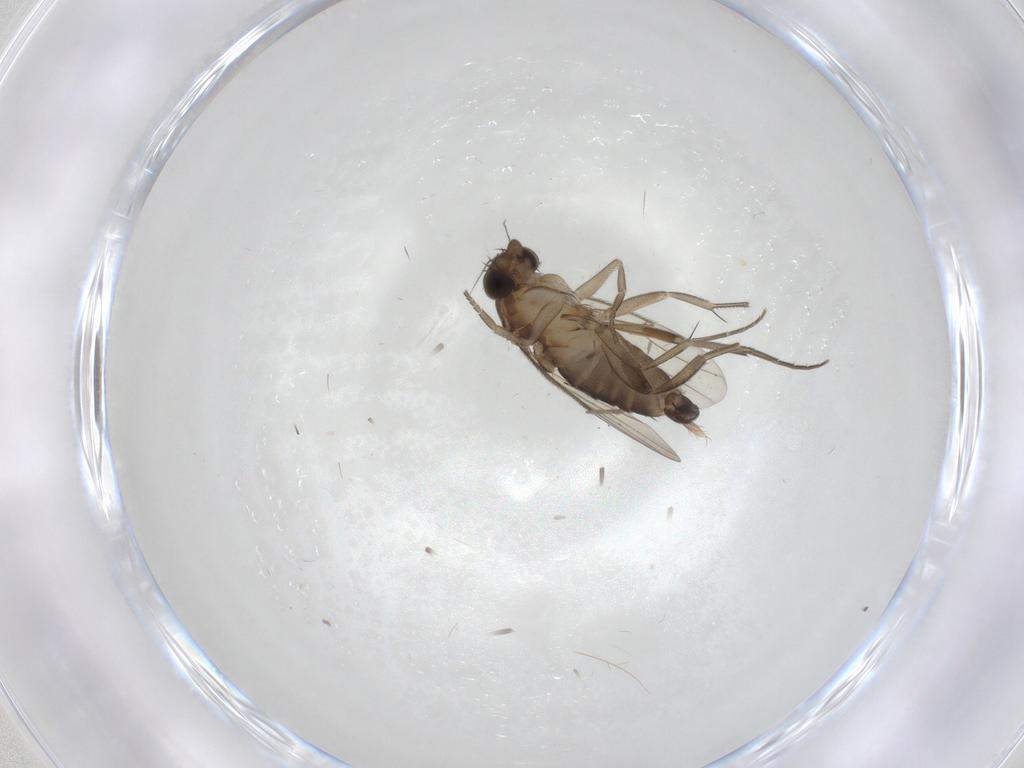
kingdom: Animalia
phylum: Arthropoda
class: Insecta
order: Diptera
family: Phoridae
